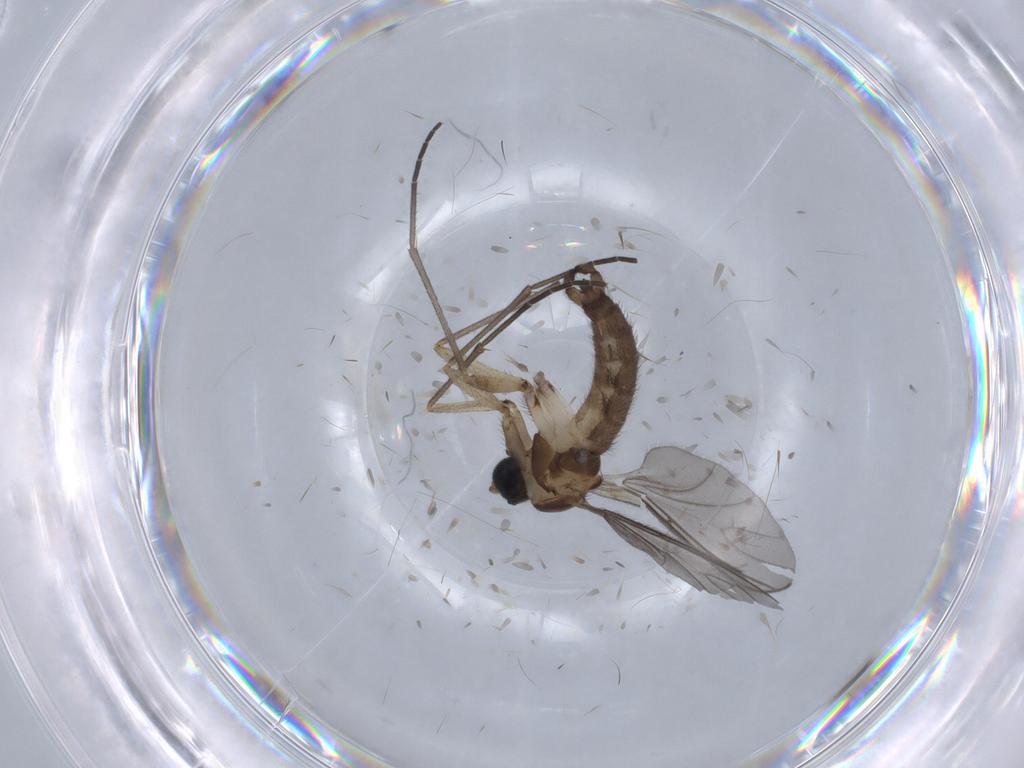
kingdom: Animalia
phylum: Arthropoda
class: Insecta
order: Diptera
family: Sciaridae
